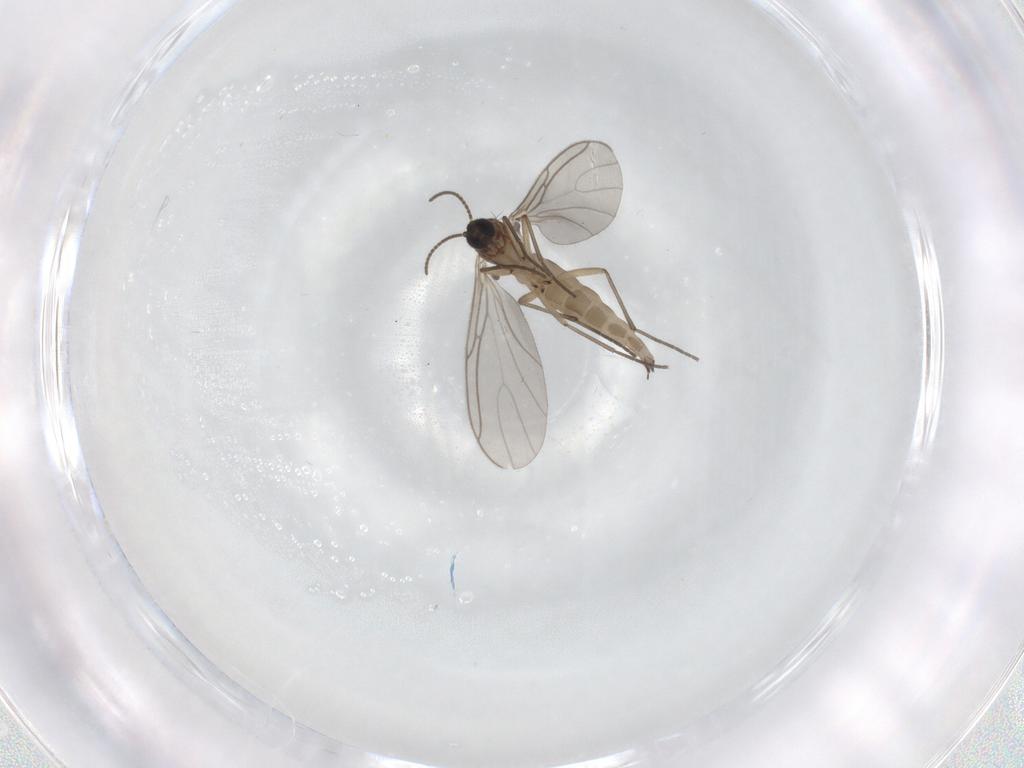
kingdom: Animalia
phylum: Arthropoda
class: Insecta
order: Diptera
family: Sciaridae
